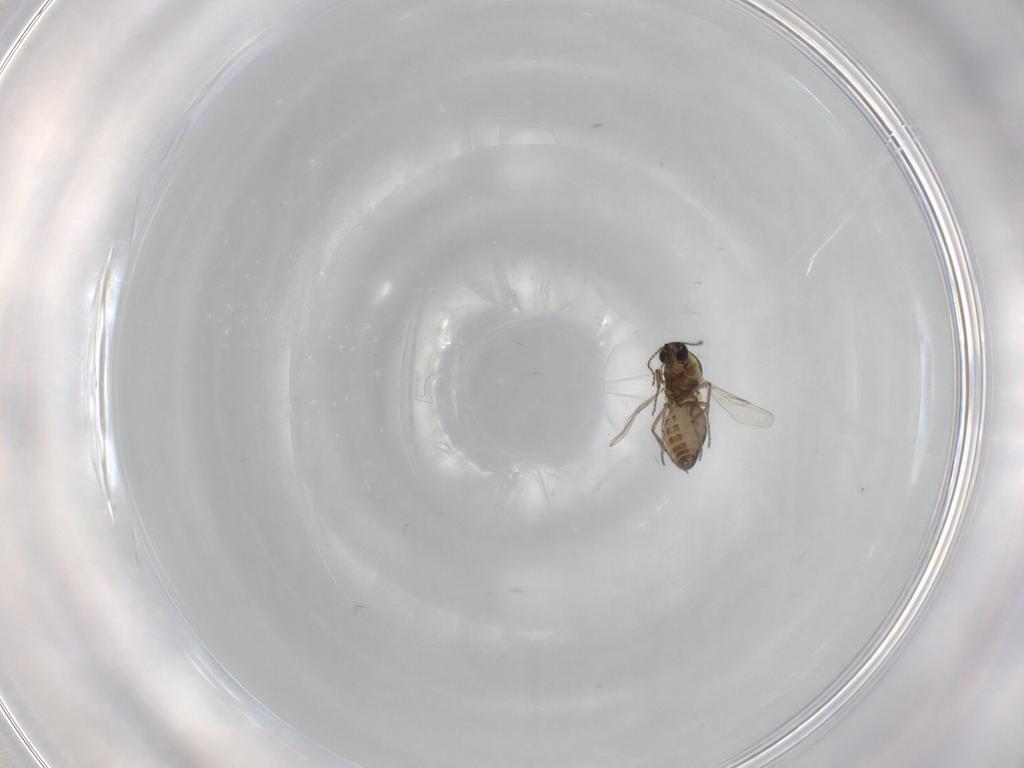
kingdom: Animalia
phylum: Arthropoda
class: Insecta
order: Diptera
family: Ceratopogonidae
